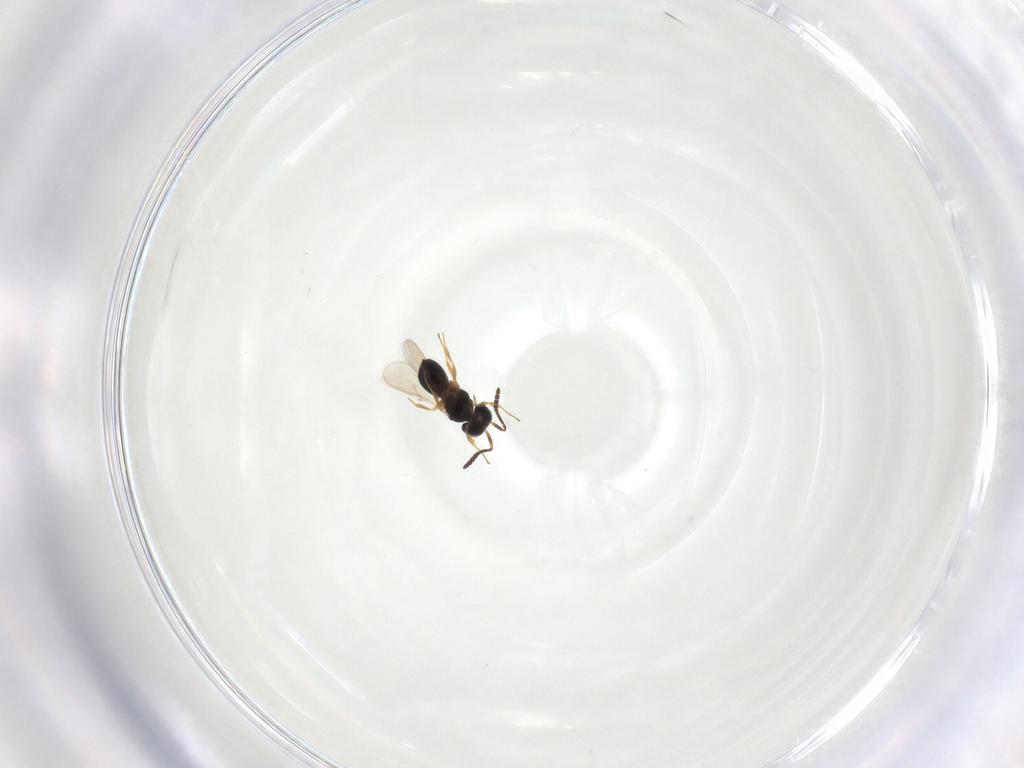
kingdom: Animalia
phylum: Arthropoda
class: Insecta
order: Hymenoptera
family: Scelionidae
